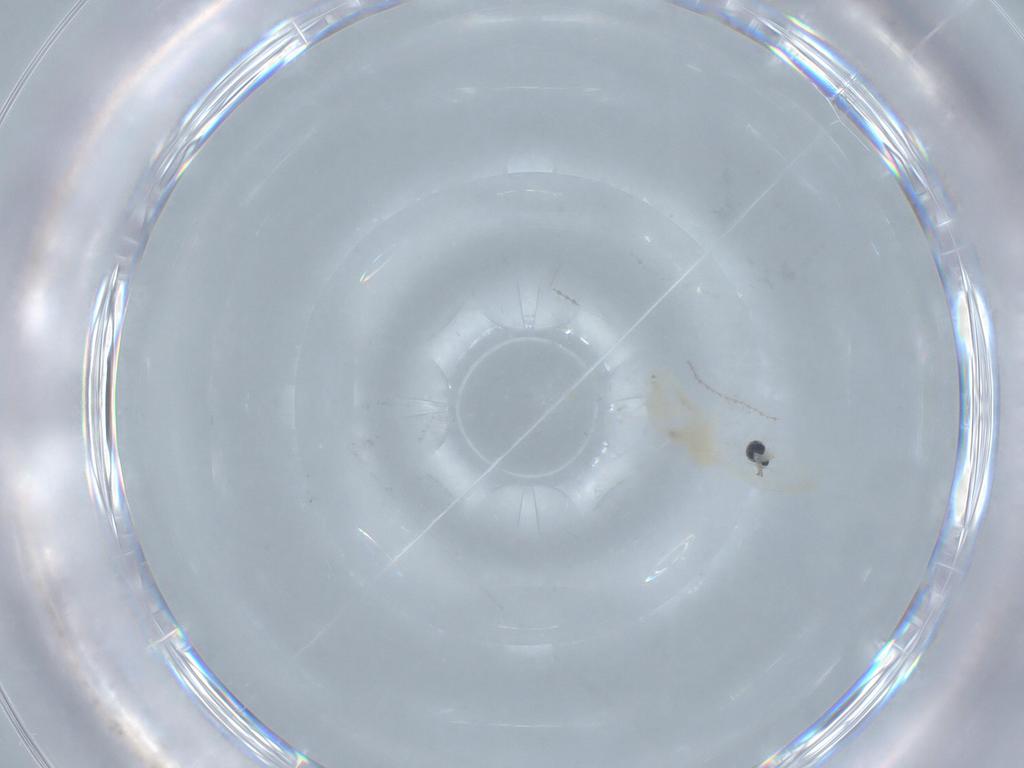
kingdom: Animalia
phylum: Arthropoda
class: Insecta
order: Diptera
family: Cecidomyiidae
